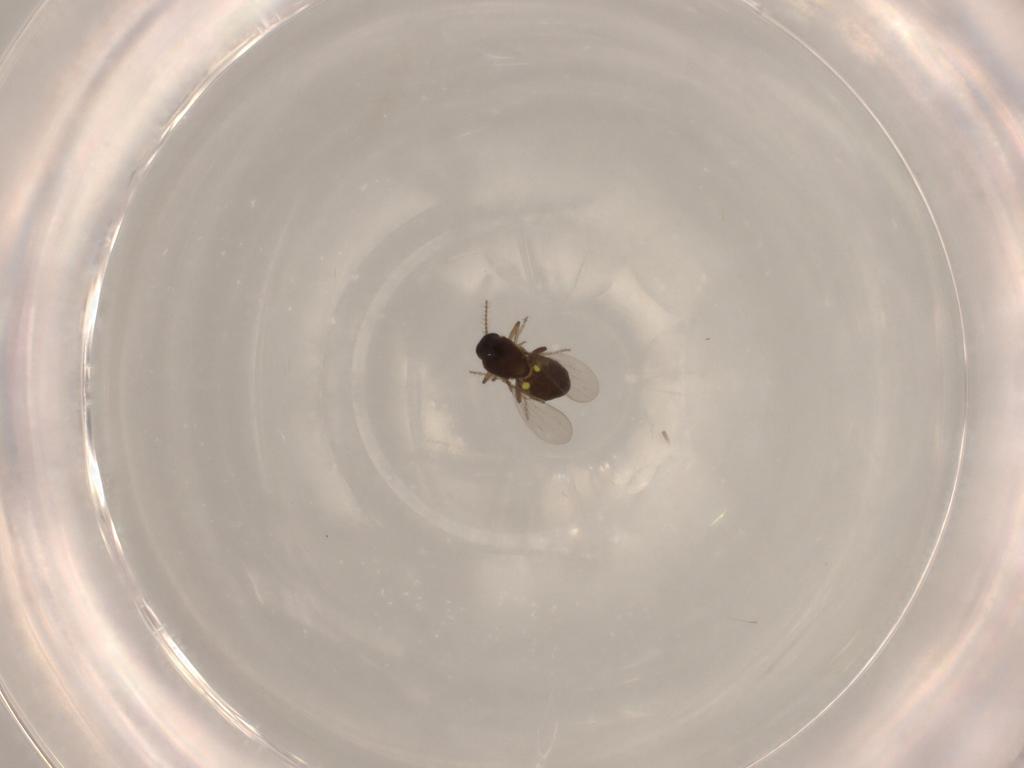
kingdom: Animalia
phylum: Arthropoda
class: Insecta
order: Diptera
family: Ceratopogonidae
